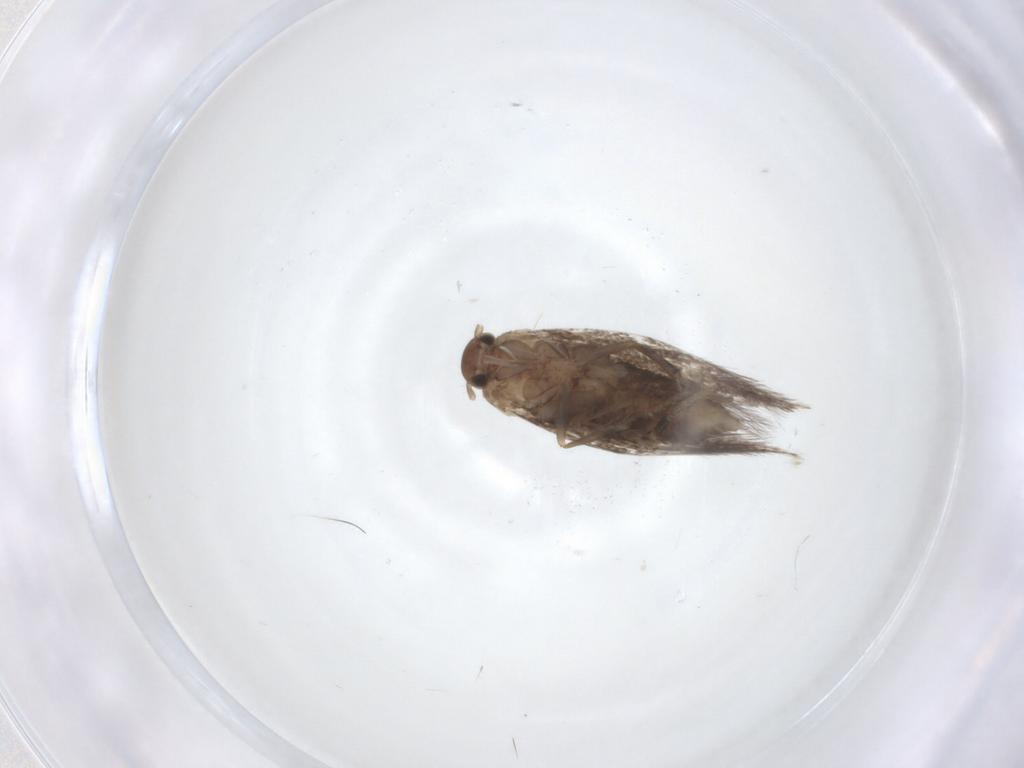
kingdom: Animalia
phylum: Arthropoda
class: Insecta
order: Lepidoptera
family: Elachistidae
